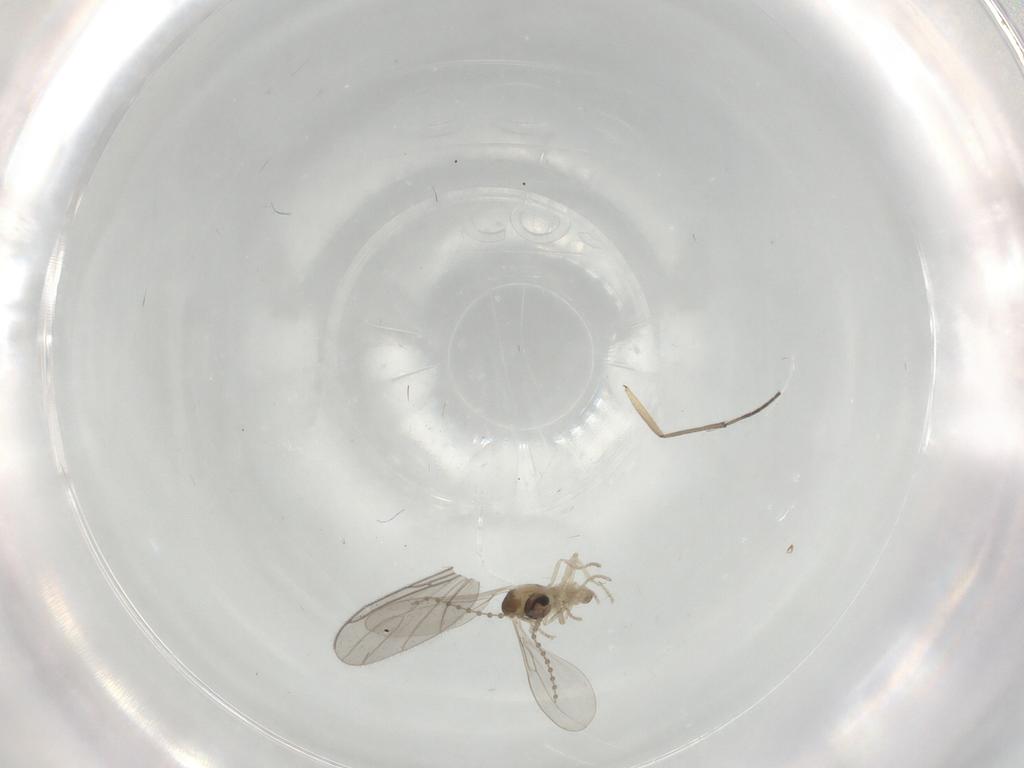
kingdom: Animalia
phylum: Arthropoda
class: Insecta
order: Diptera
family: Cecidomyiidae
